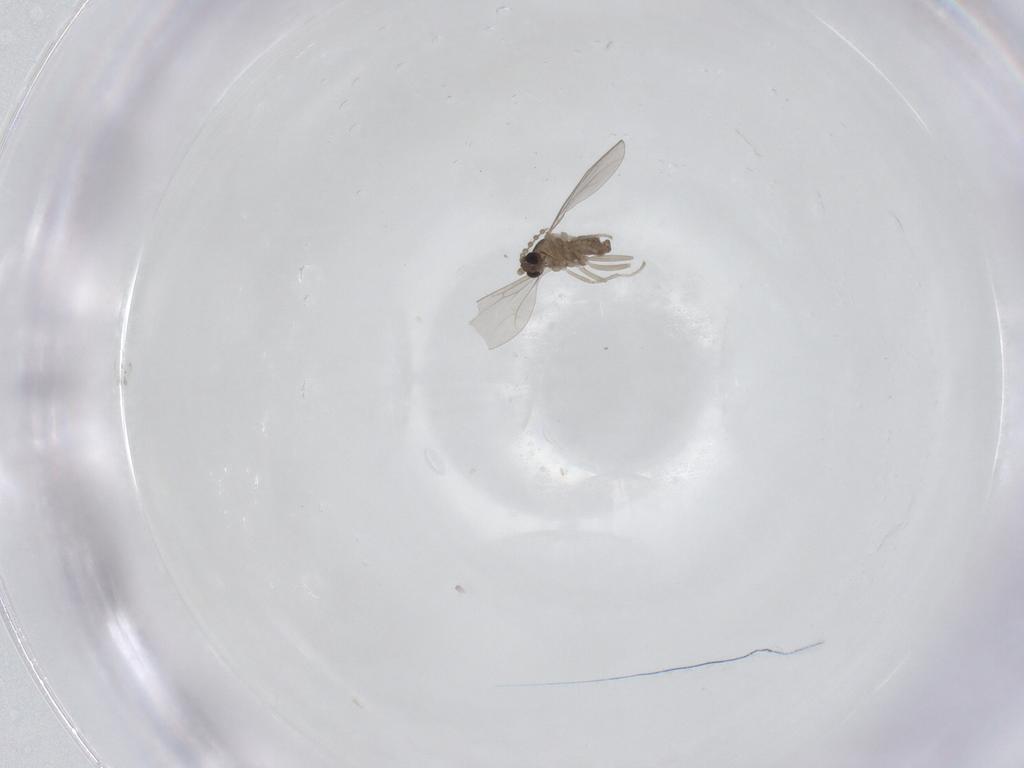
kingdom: Animalia
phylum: Arthropoda
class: Insecta
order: Diptera
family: Cecidomyiidae
